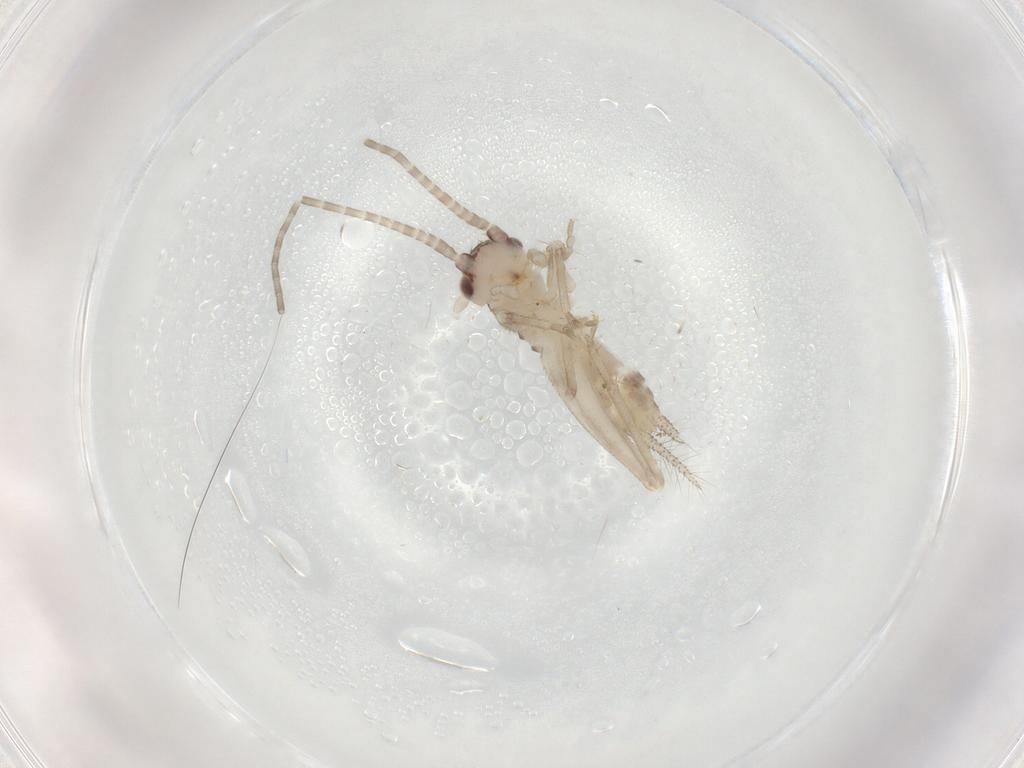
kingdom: Animalia
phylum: Arthropoda
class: Insecta
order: Orthoptera
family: Gryllidae
